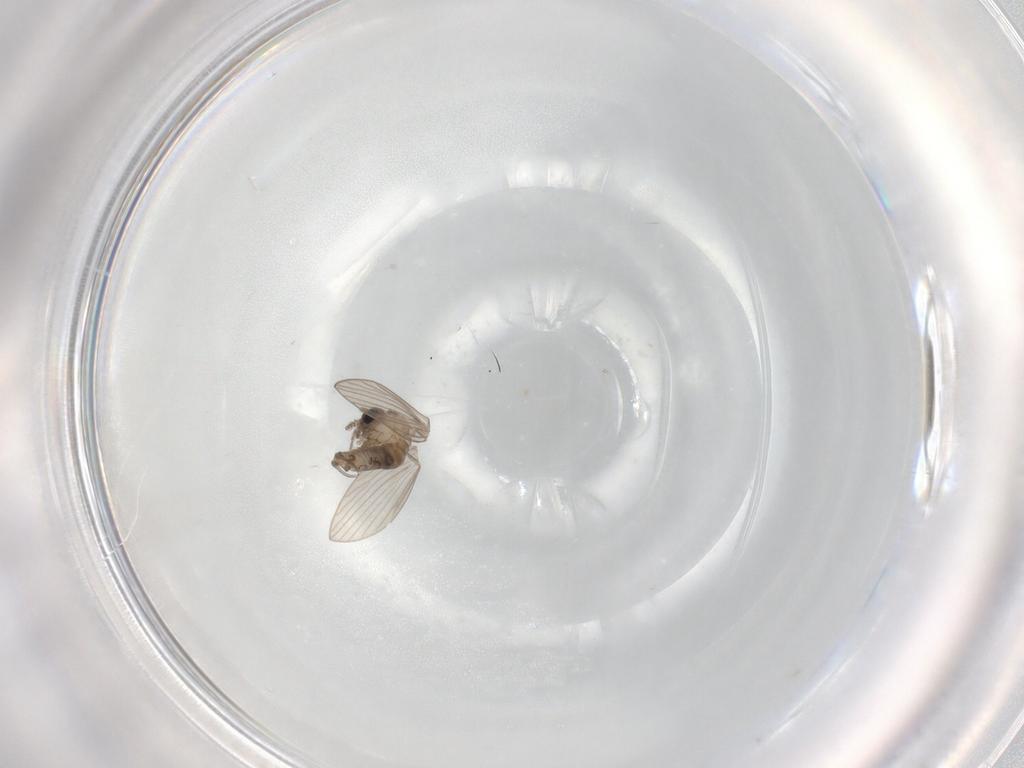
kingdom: Animalia
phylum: Arthropoda
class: Insecta
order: Diptera
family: Psychodidae
